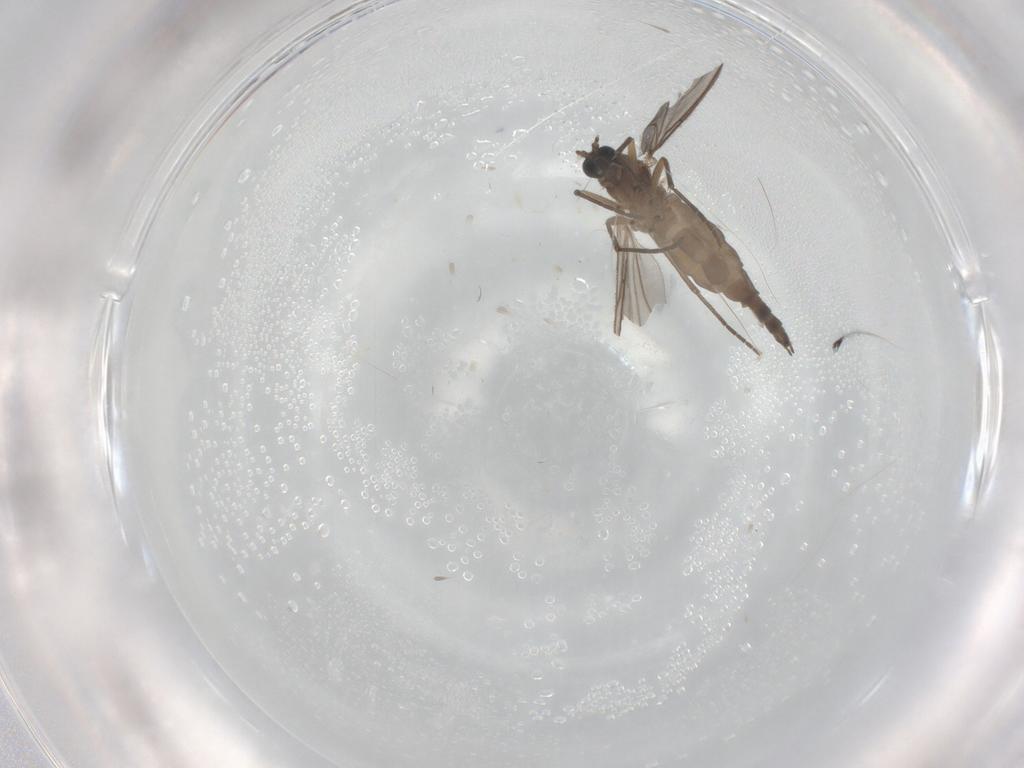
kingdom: Animalia
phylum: Arthropoda
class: Insecta
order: Diptera
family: Sciaridae
